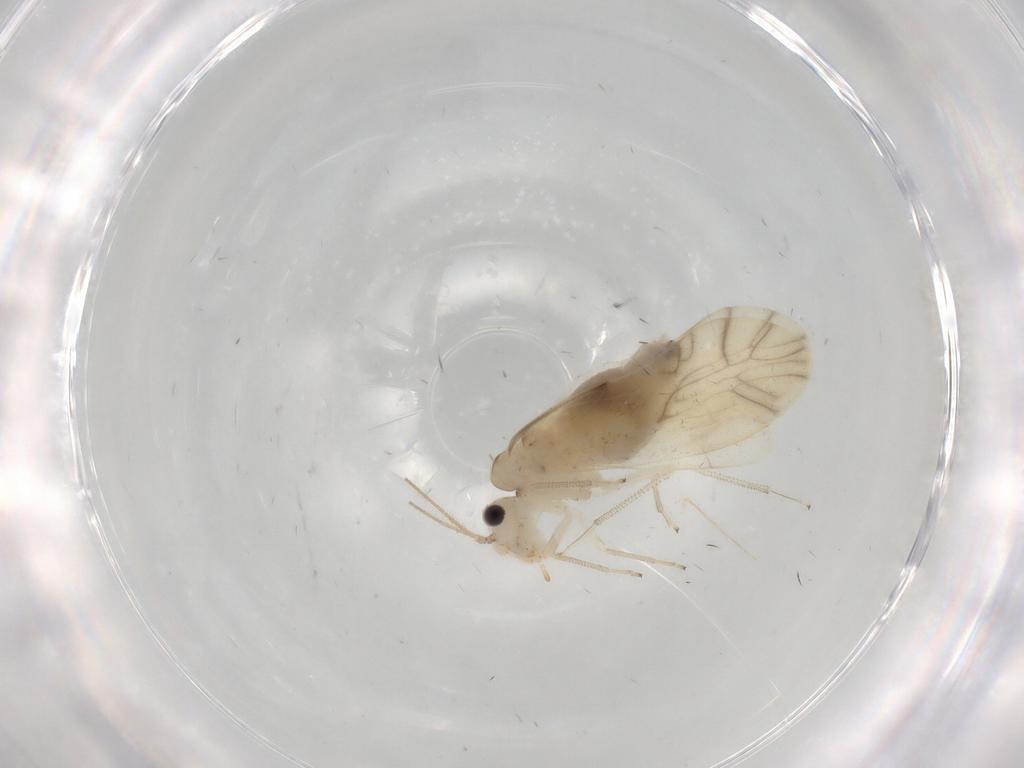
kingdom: Animalia
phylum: Arthropoda
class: Insecta
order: Psocodea
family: Caeciliusidae
